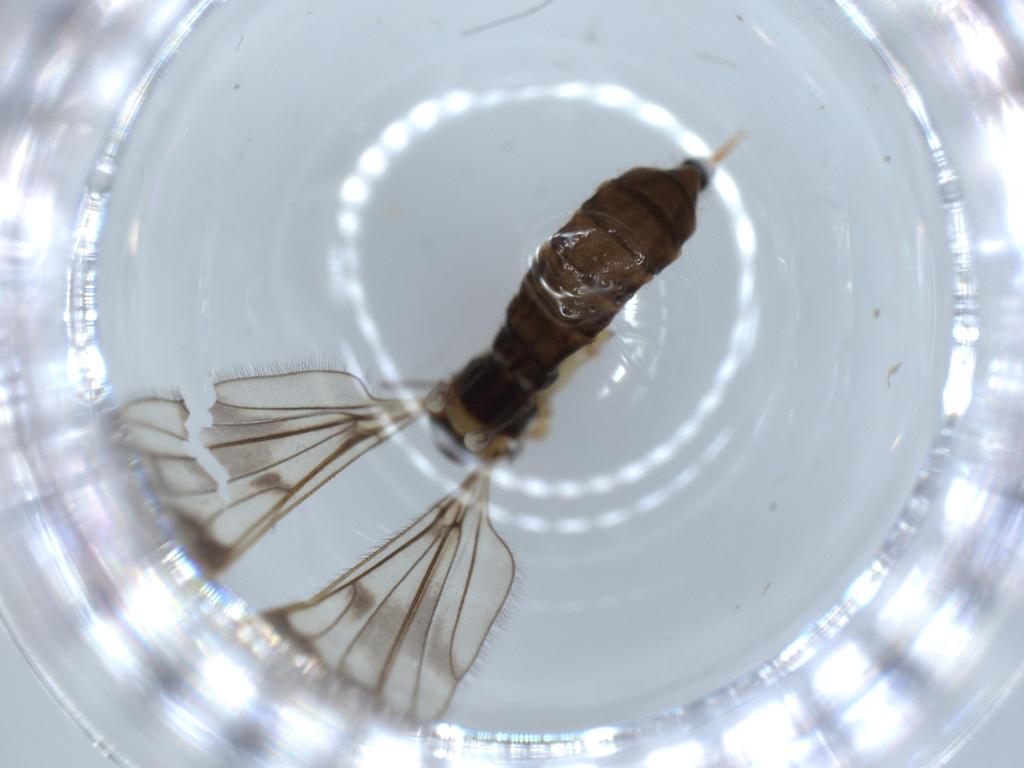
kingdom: Animalia
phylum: Arthropoda
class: Insecta
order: Diptera
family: Limoniidae
